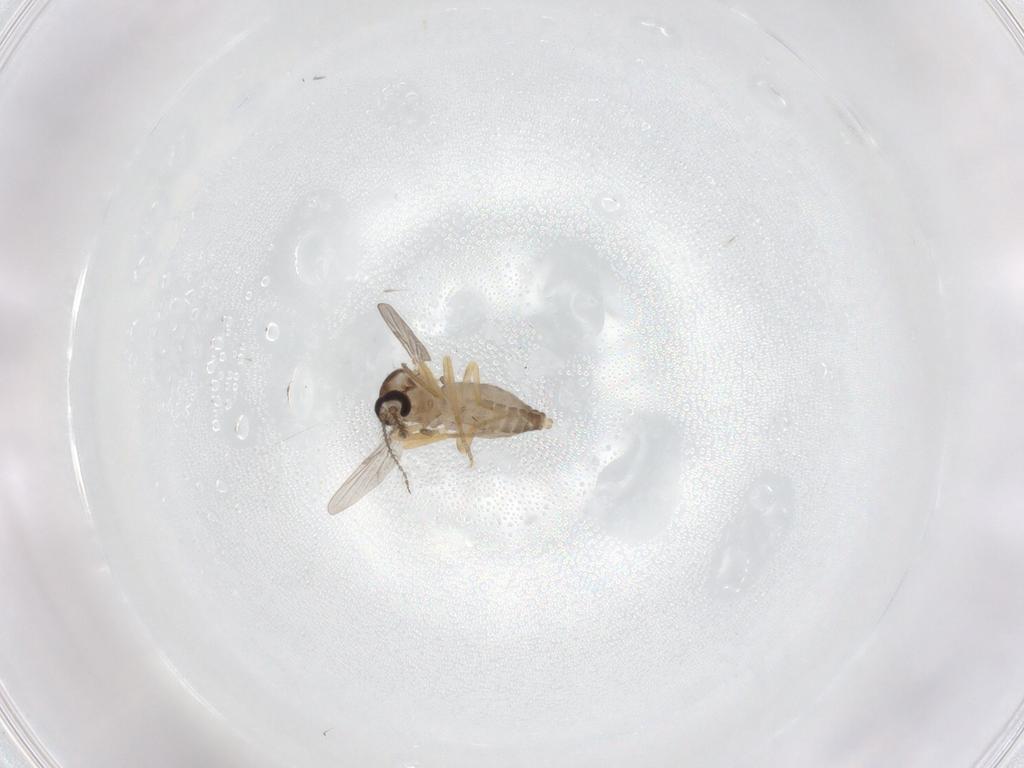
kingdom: Animalia
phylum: Arthropoda
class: Insecta
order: Diptera
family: Ceratopogonidae
